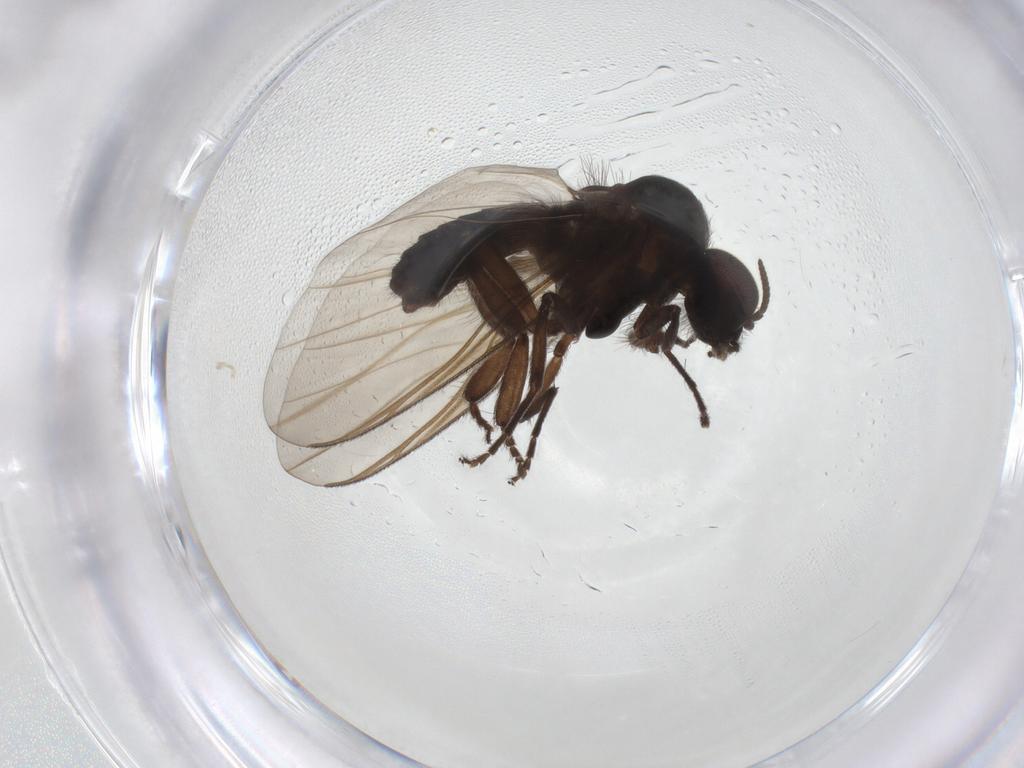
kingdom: Animalia
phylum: Arthropoda
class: Insecta
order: Diptera
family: Simuliidae
